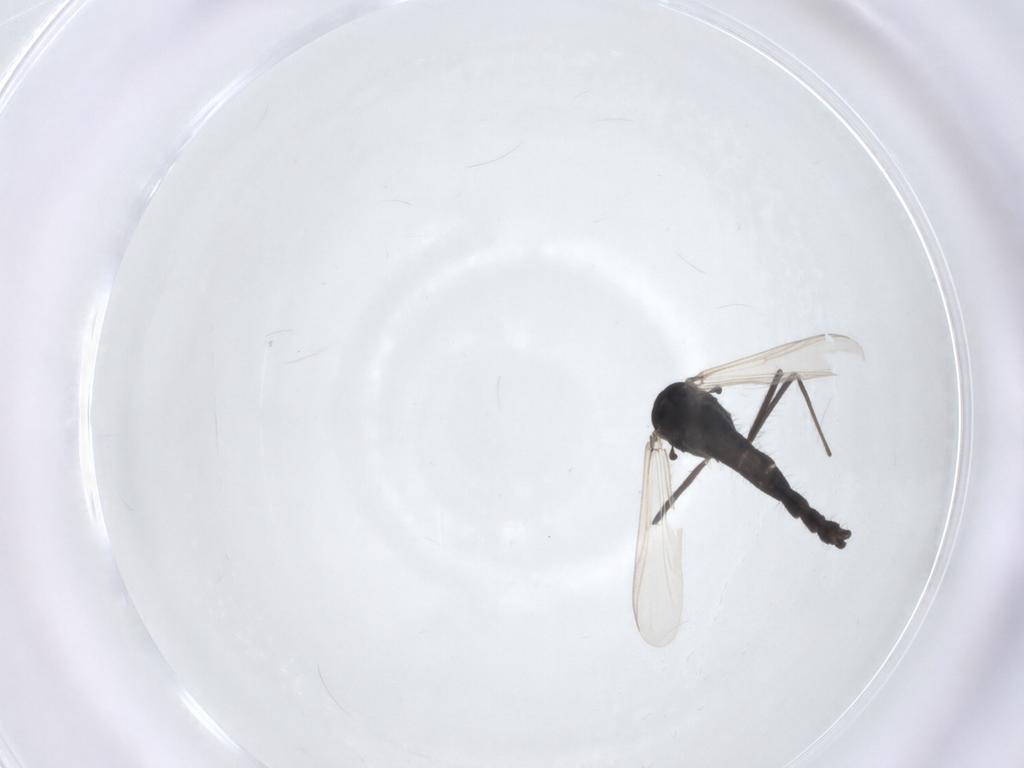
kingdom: Animalia
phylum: Arthropoda
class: Insecta
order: Diptera
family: Chironomidae
